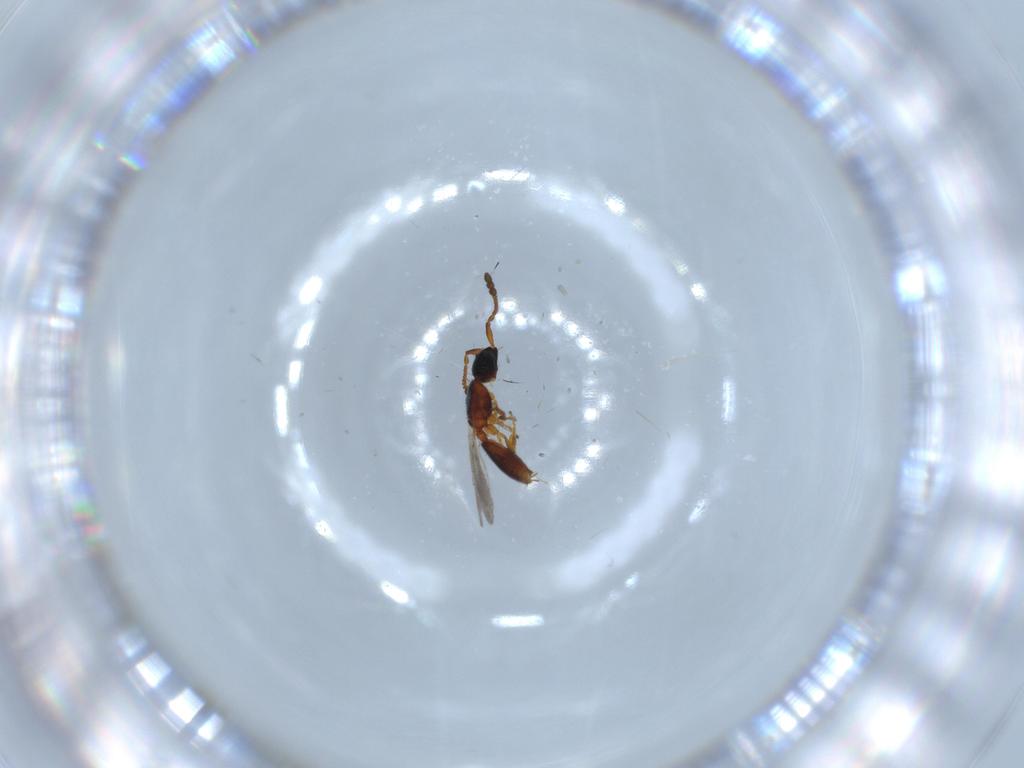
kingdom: Animalia
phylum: Arthropoda
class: Insecta
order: Hymenoptera
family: Diapriidae
